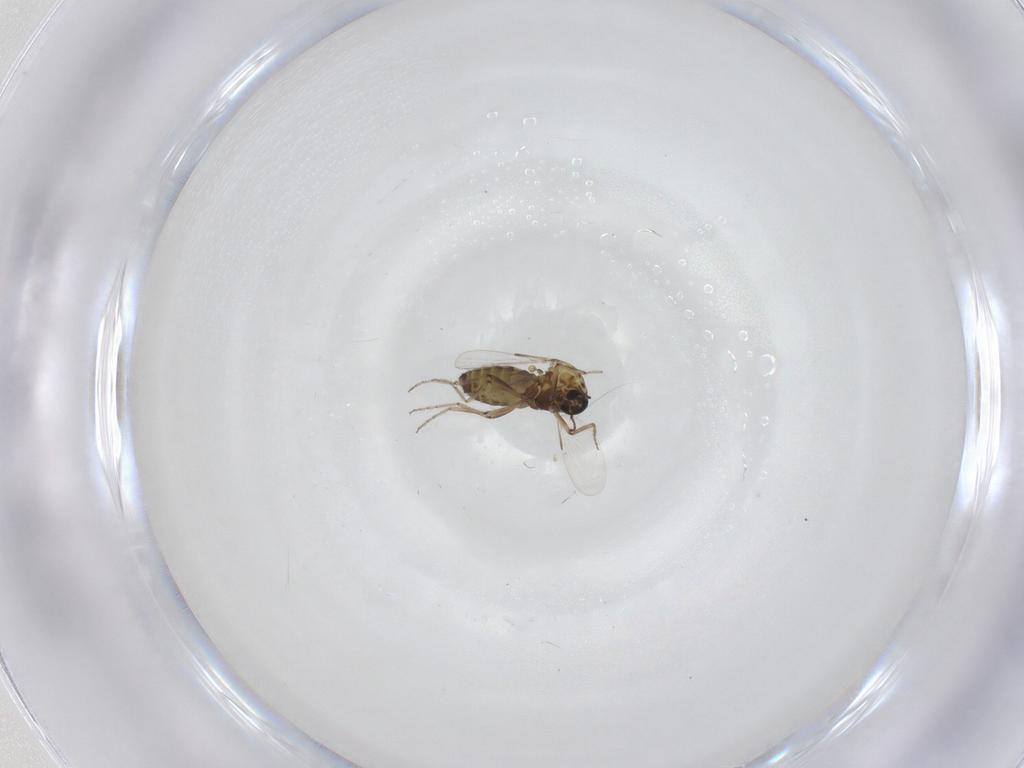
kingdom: Animalia
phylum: Arthropoda
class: Insecta
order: Diptera
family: Ceratopogonidae
